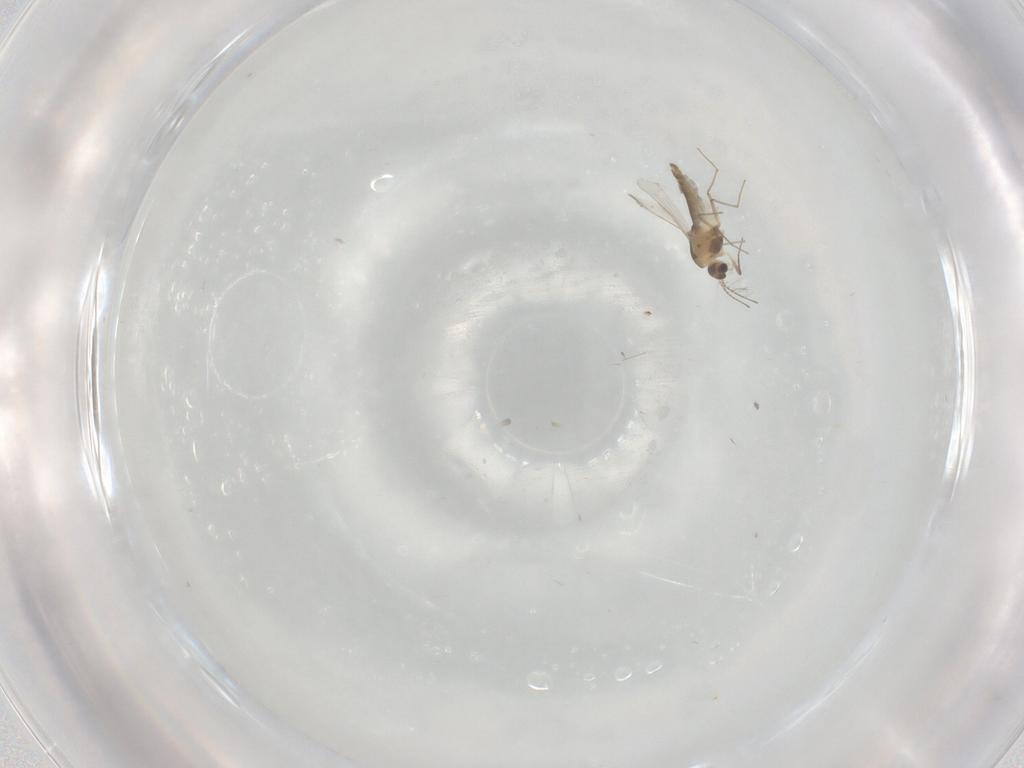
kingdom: Animalia
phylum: Arthropoda
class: Insecta
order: Diptera
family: Chironomidae
